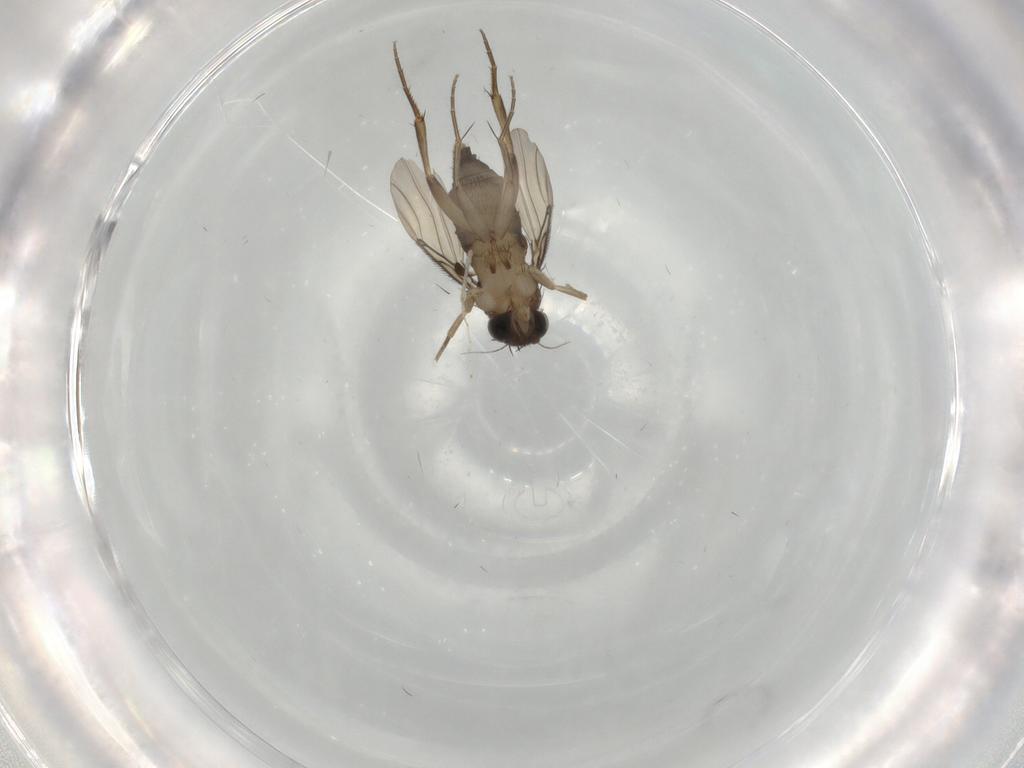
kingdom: Animalia
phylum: Arthropoda
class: Insecta
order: Diptera
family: Phoridae
